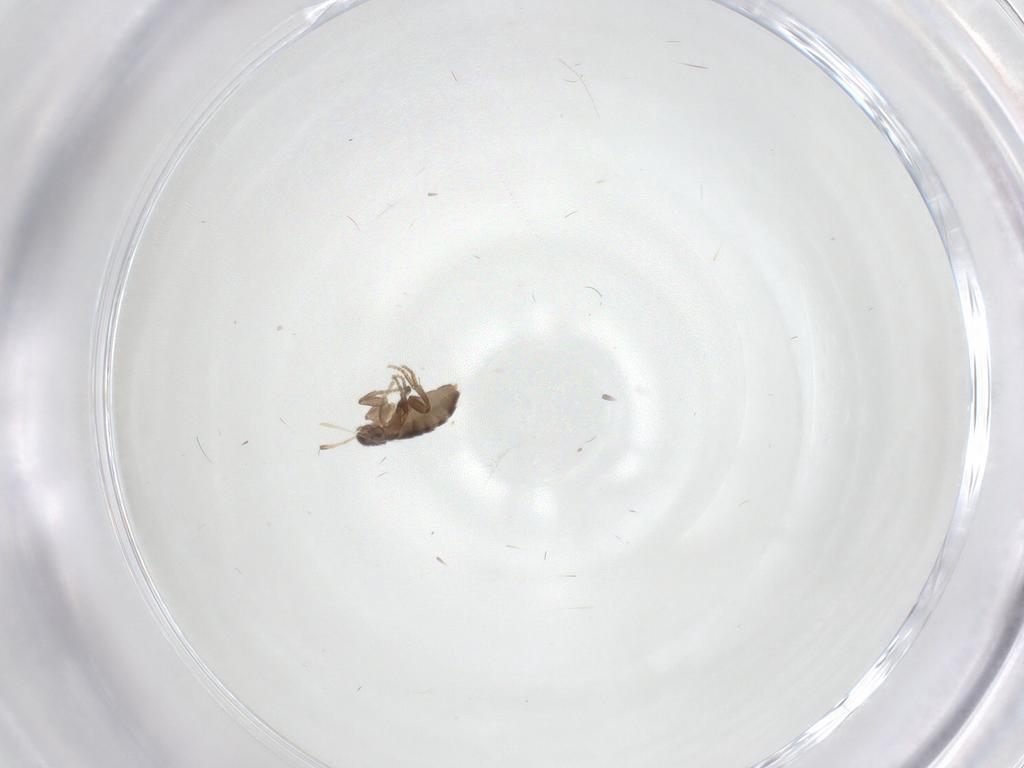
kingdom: Animalia
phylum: Arthropoda
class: Insecta
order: Diptera
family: Phoridae
